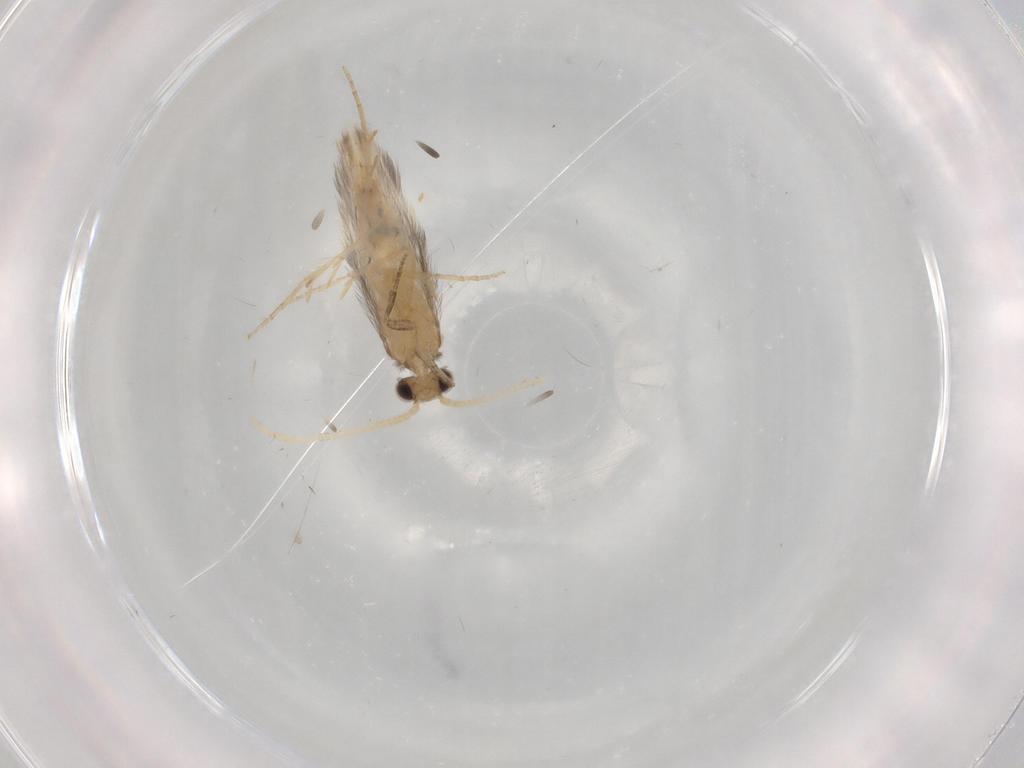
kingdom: Animalia
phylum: Arthropoda
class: Insecta
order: Trichoptera
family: Hydroptilidae
